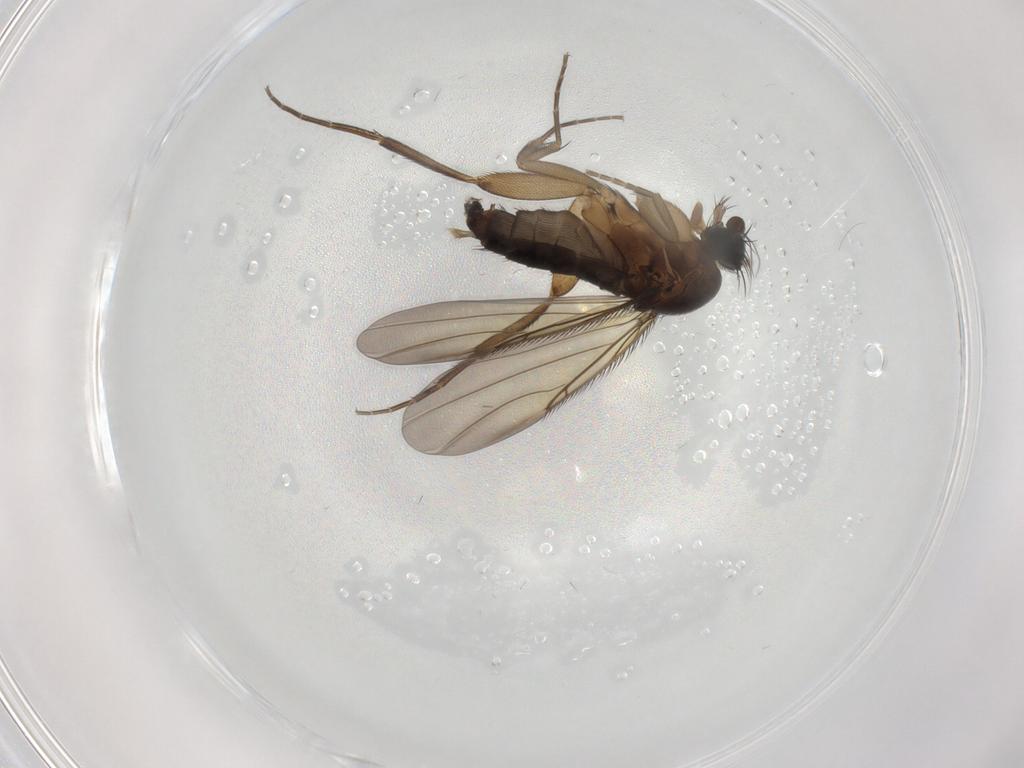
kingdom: Animalia
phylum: Arthropoda
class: Insecta
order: Diptera
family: Phoridae
